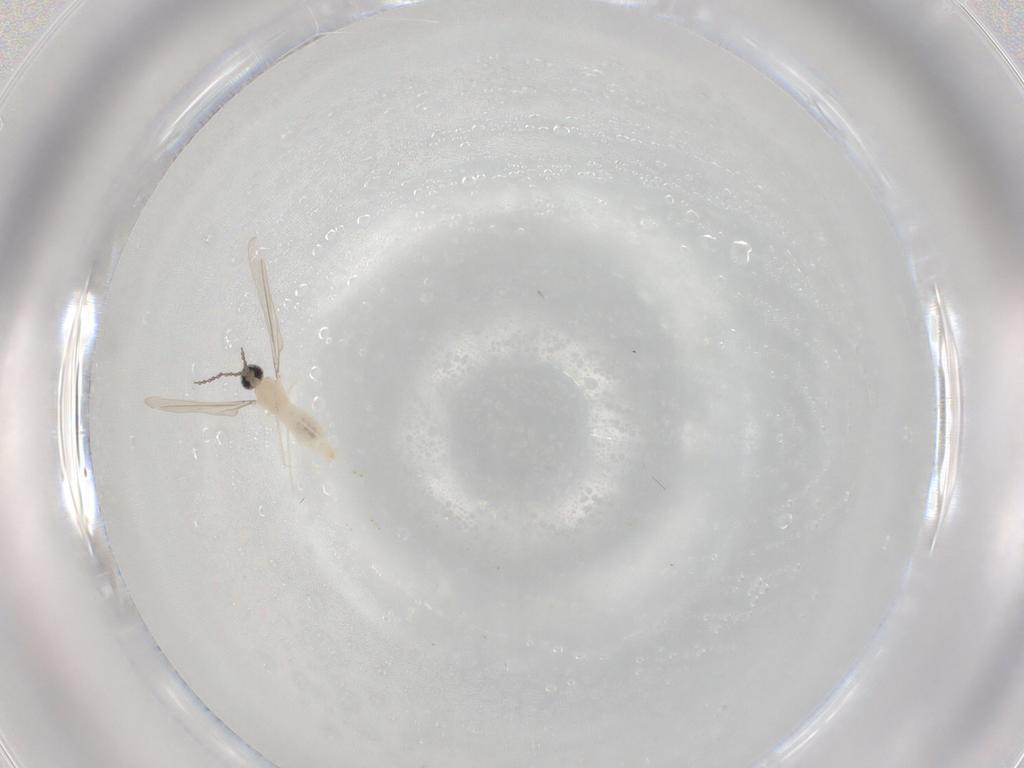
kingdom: Animalia
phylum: Arthropoda
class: Insecta
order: Diptera
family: Cecidomyiidae
